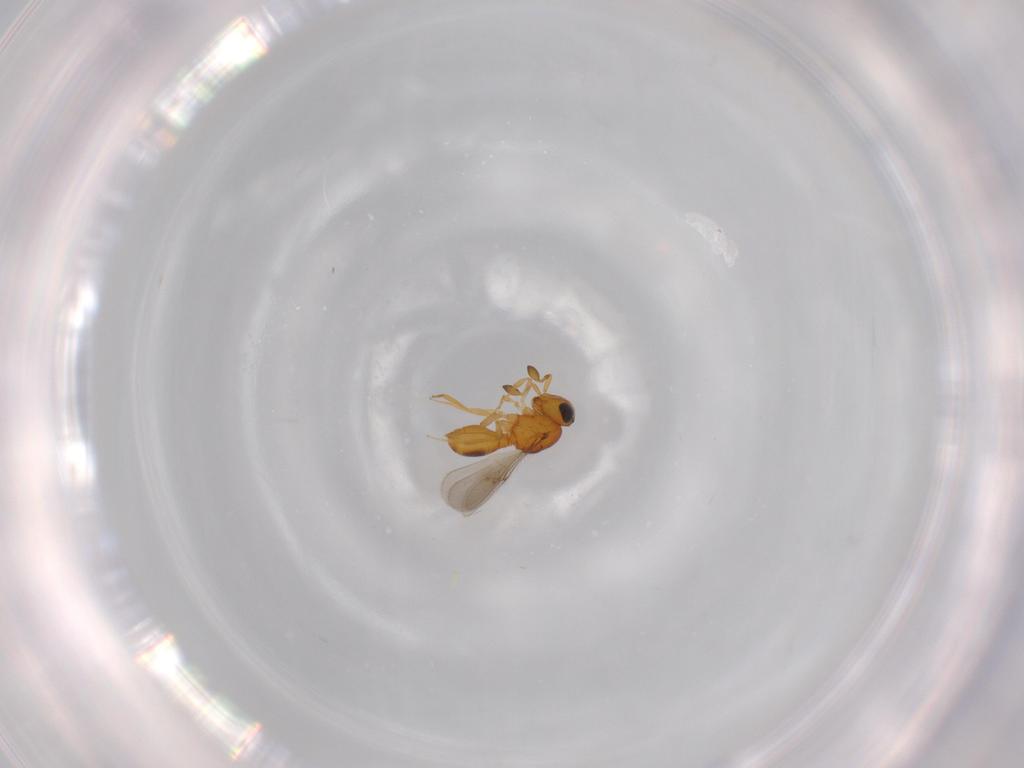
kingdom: Animalia
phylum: Arthropoda
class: Insecta
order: Hymenoptera
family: Scelionidae
